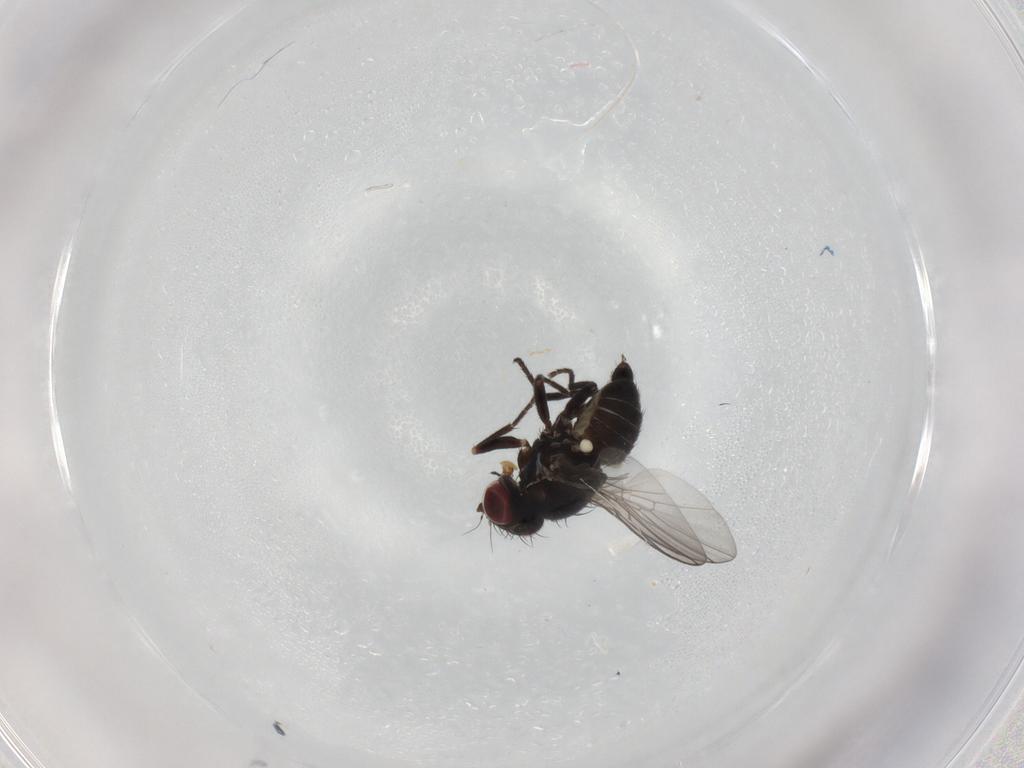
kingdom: Animalia
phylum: Arthropoda
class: Insecta
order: Diptera
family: Agromyzidae
